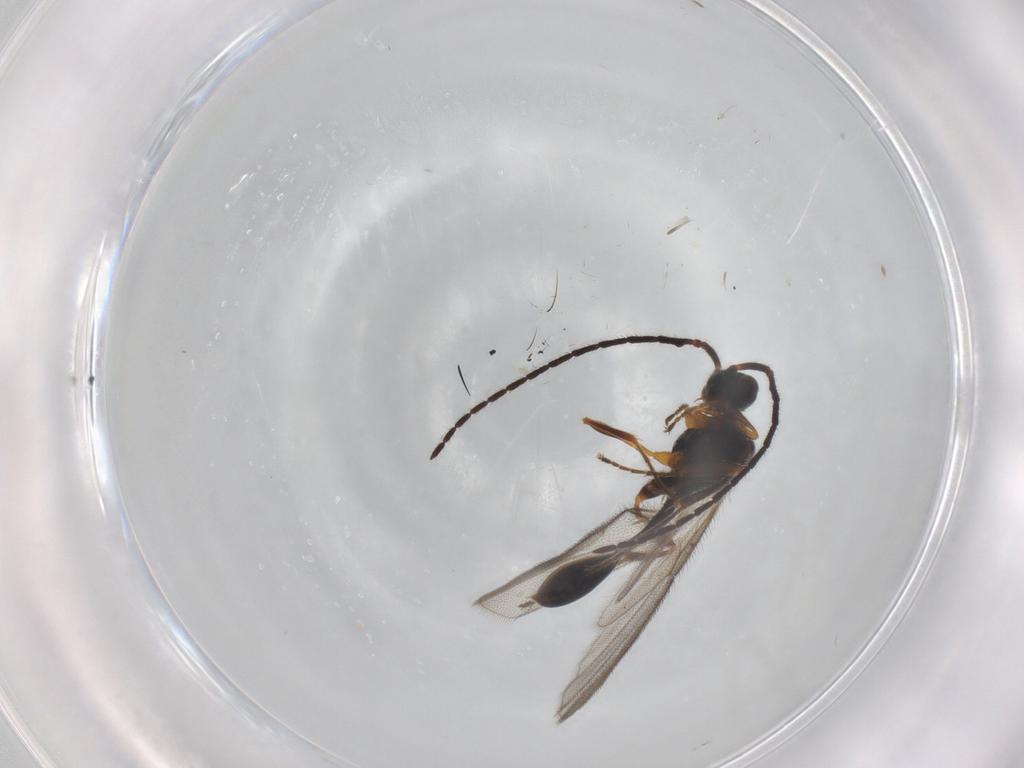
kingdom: Animalia
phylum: Arthropoda
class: Insecta
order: Hymenoptera
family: Diapriidae
